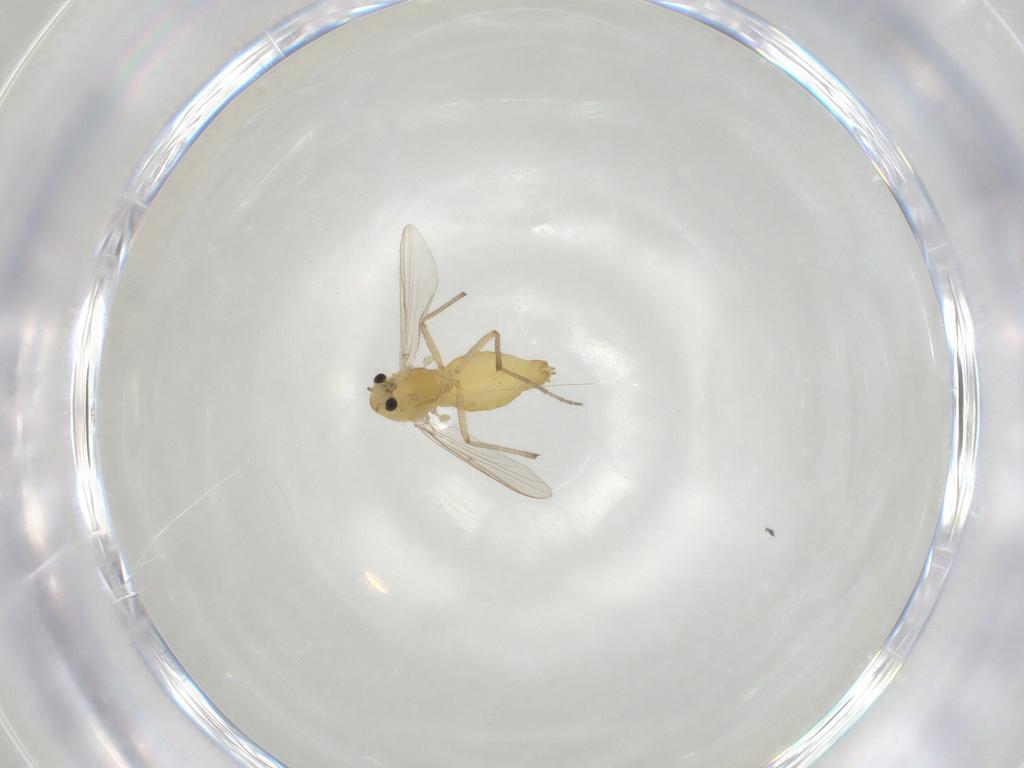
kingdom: Animalia
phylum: Arthropoda
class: Insecta
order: Diptera
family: Chironomidae
